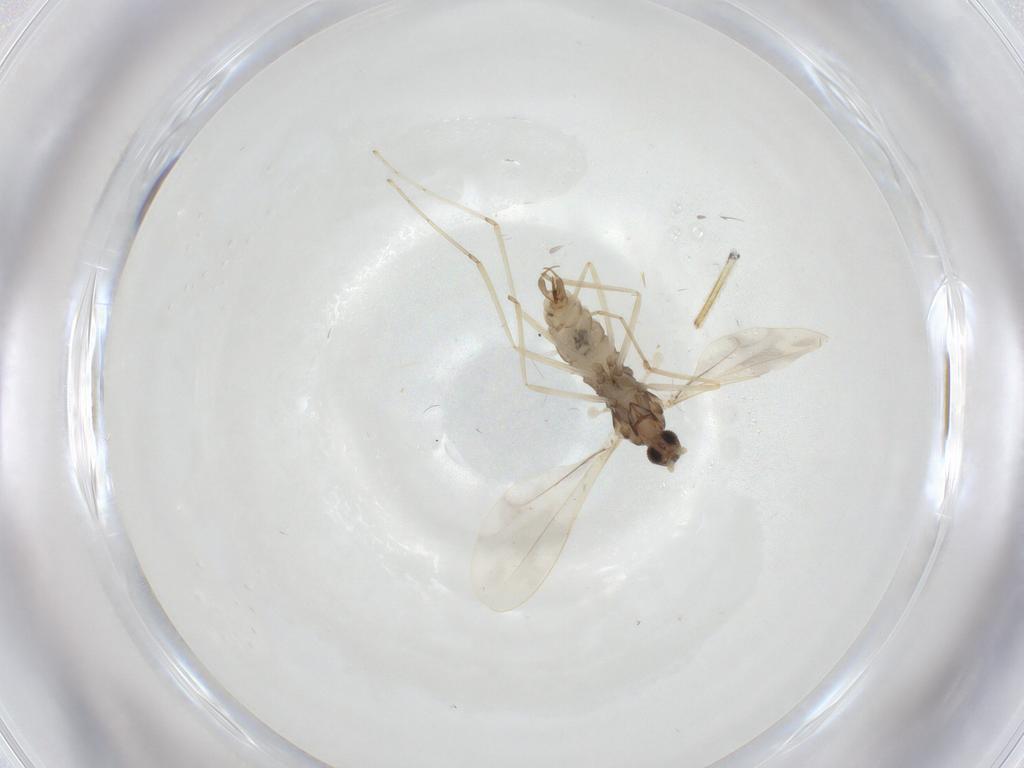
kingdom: Animalia
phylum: Arthropoda
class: Insecta
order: Diptera
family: Cecidomyiidae
